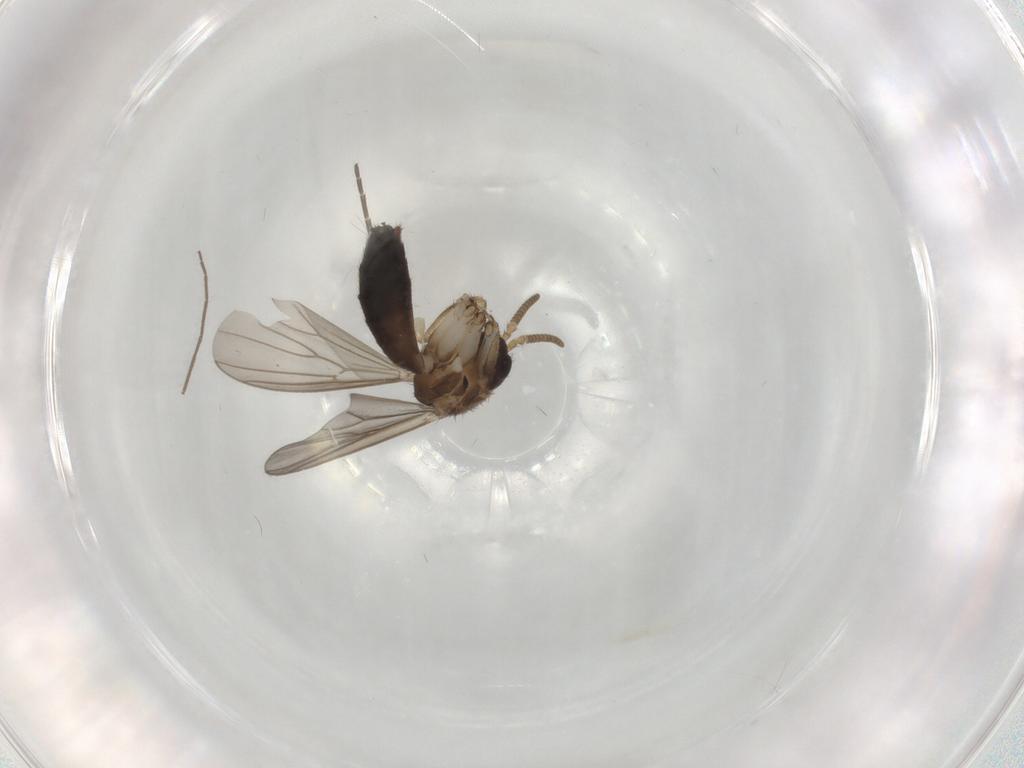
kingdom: Animalia
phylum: Arthropoda
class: Insecta
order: Diptera
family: Mycetophilidae
